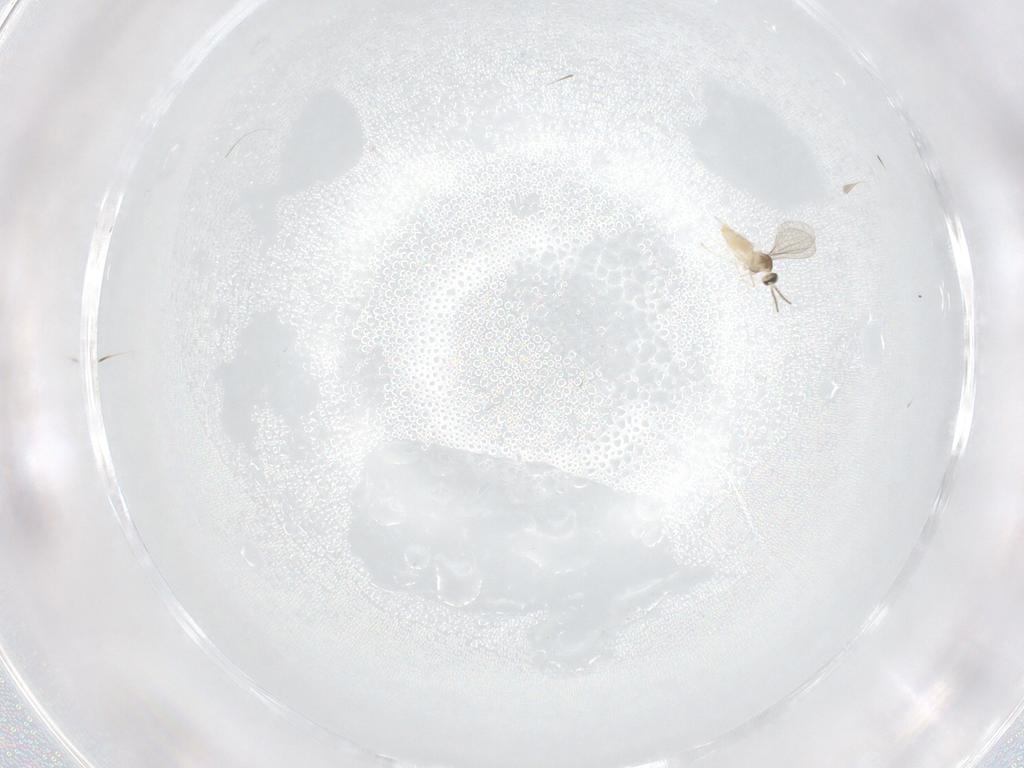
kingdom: Animalia
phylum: Arthropoda
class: Insecta
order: Diptera
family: Cecidomyiidae
